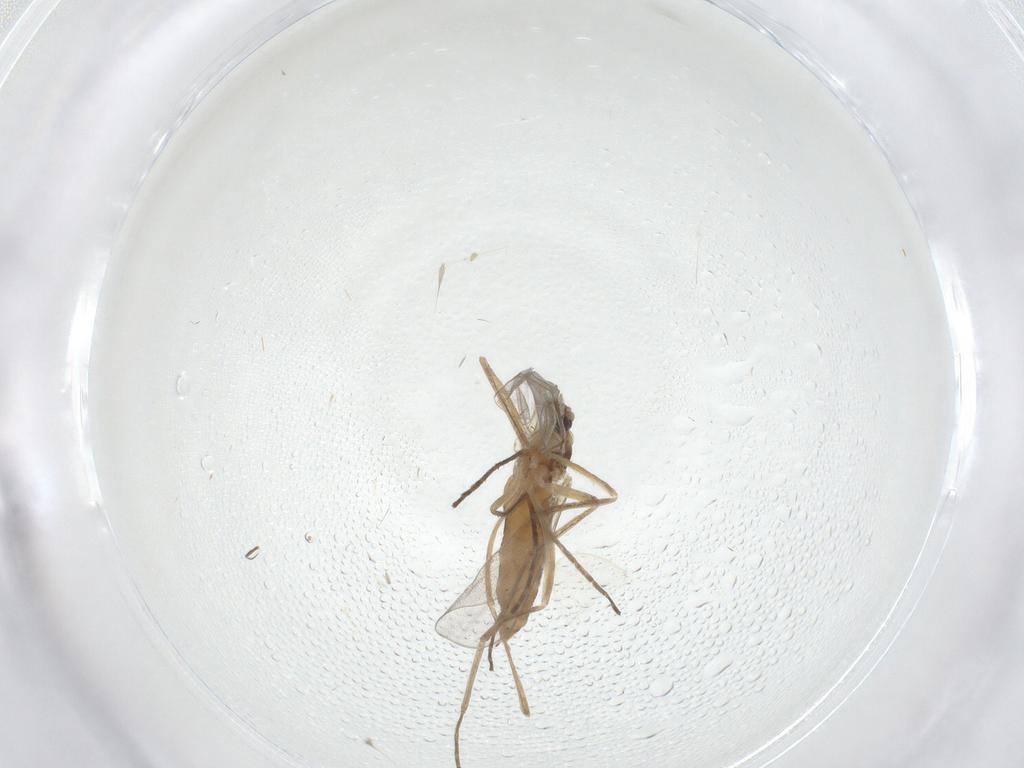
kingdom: Animalia
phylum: Arthropoda
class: Insecta
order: Diptera
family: Cecidomyiidae
